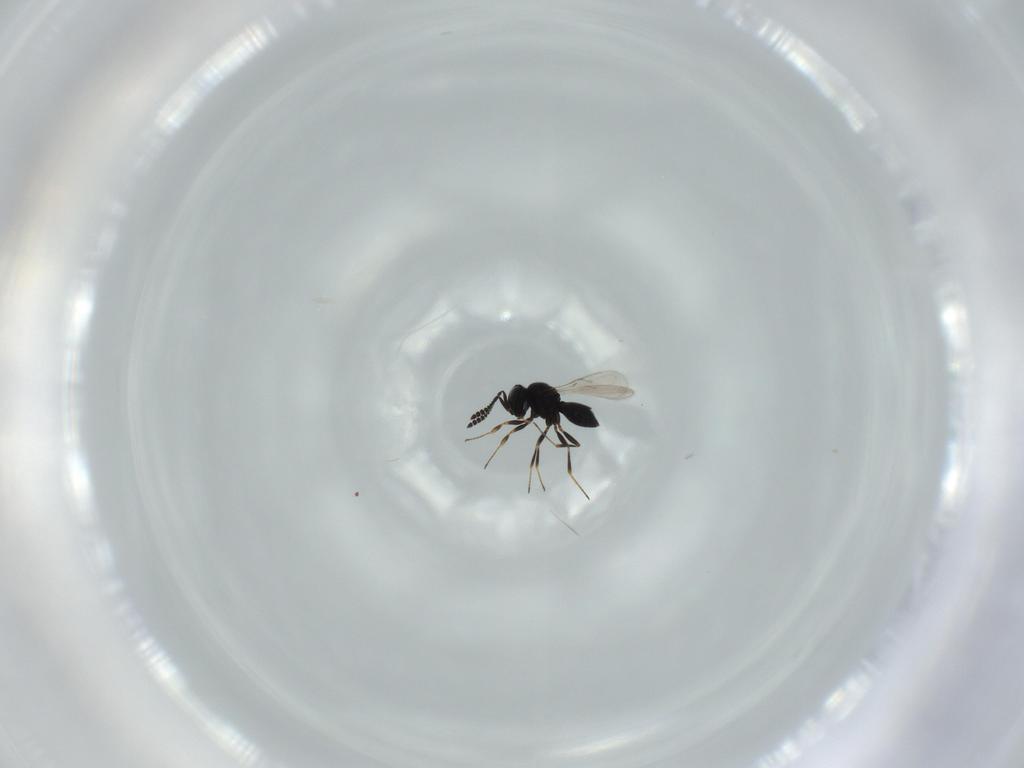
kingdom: Animalia
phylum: Arthropoda
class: Insecta
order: Hymenoptera
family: Scelionidae
